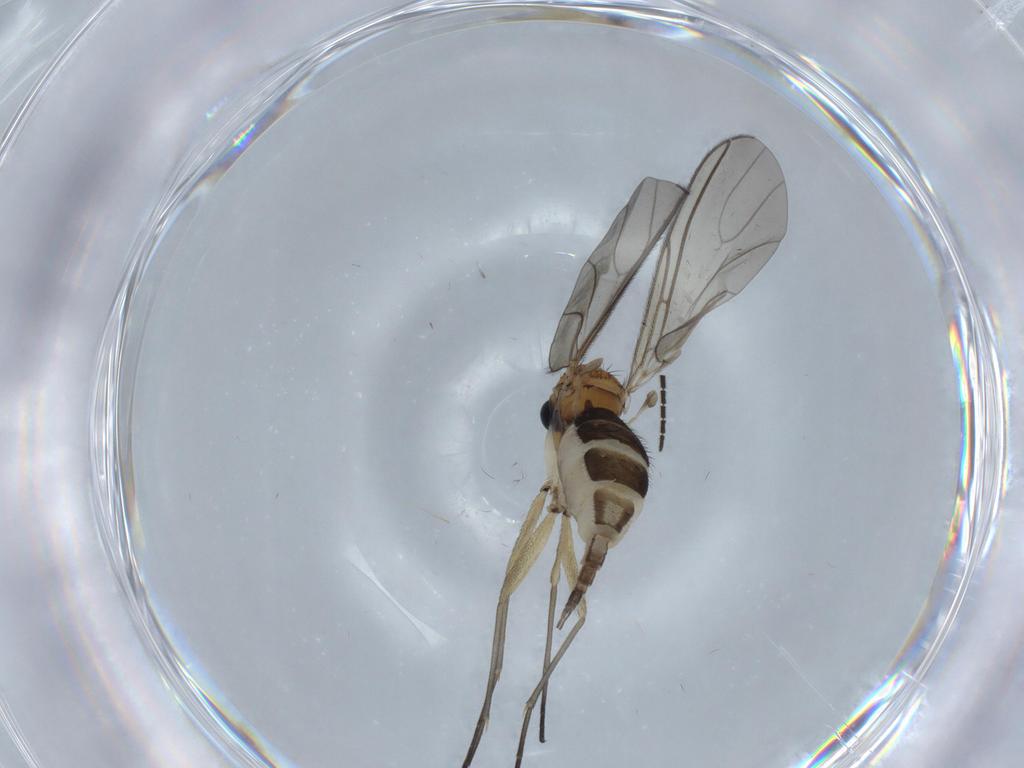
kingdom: Animalia
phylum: Arthropoda
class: Insecta
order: Diptera
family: Sciaridae
